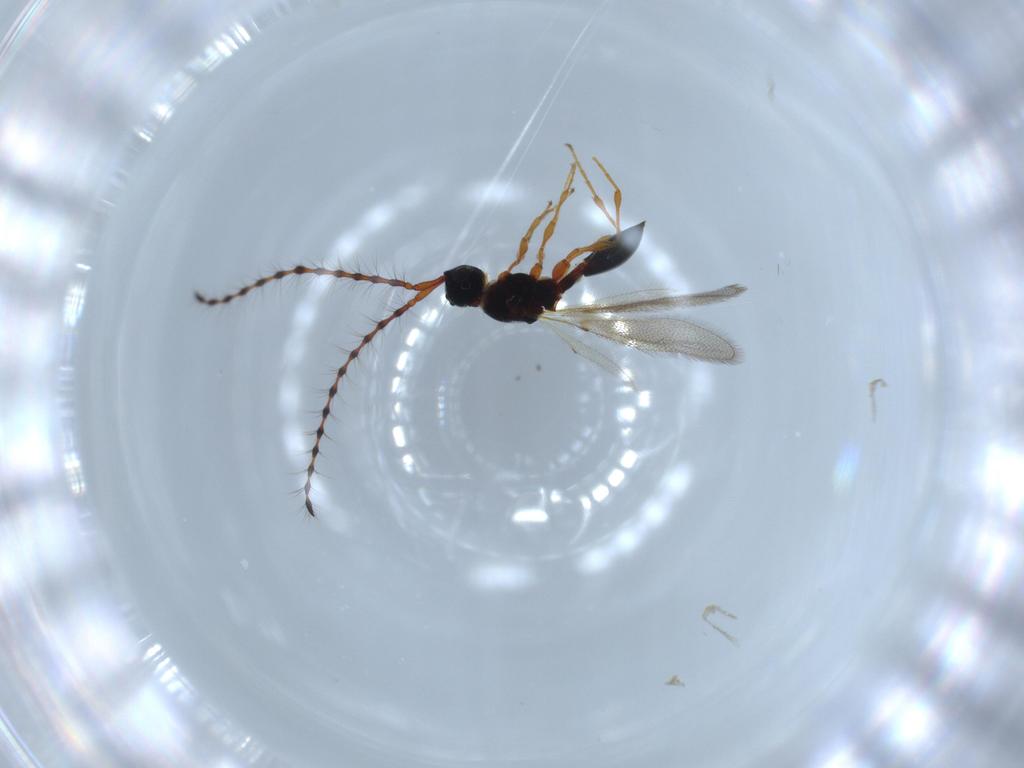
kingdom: Animalia
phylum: Arthropoda
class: Insecta
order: Hymenoptera
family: Diapriidae
